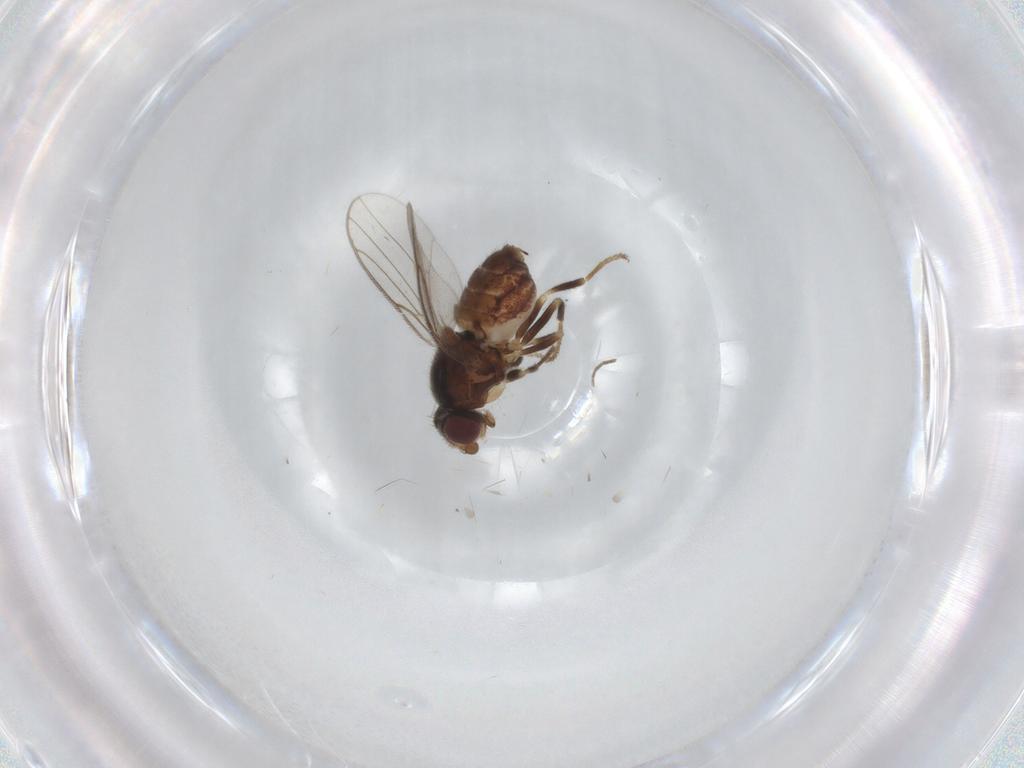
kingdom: Animalia
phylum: Arthropoda
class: Insecta
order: Diptera
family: Chloropidae
